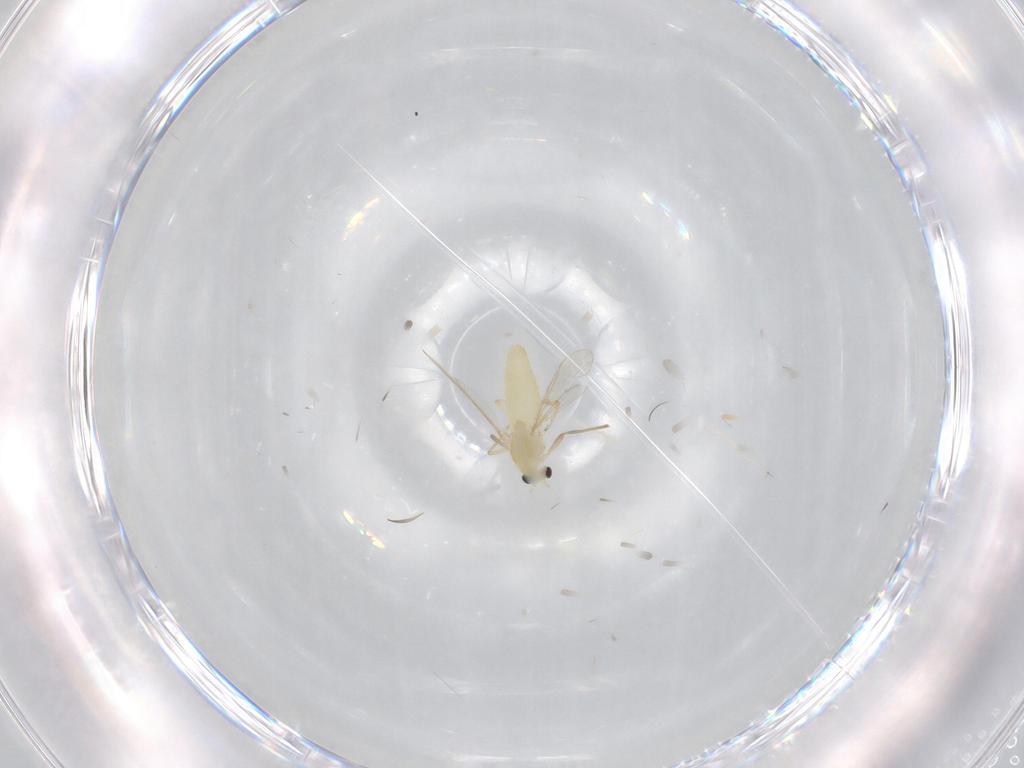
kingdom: Animalia
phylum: Arthropoda
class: Insecta
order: Diptera
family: Chironomidae
